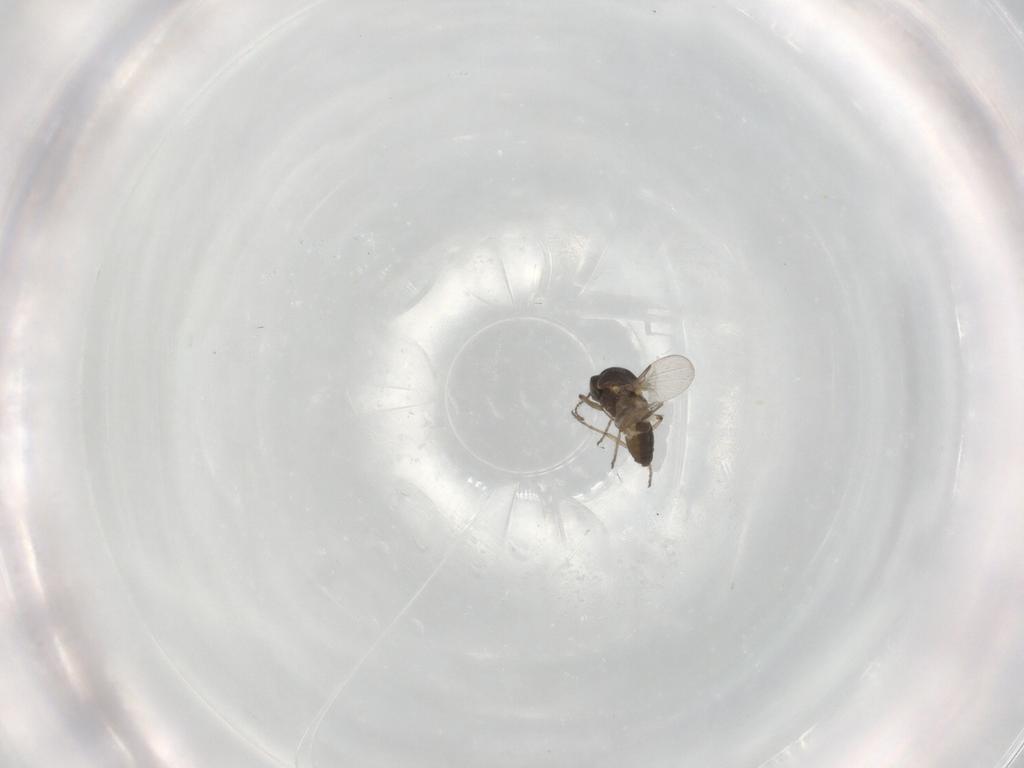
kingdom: Animalia
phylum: Arthropoda
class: Insecta
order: Diptera
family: Ceratopogonidae
